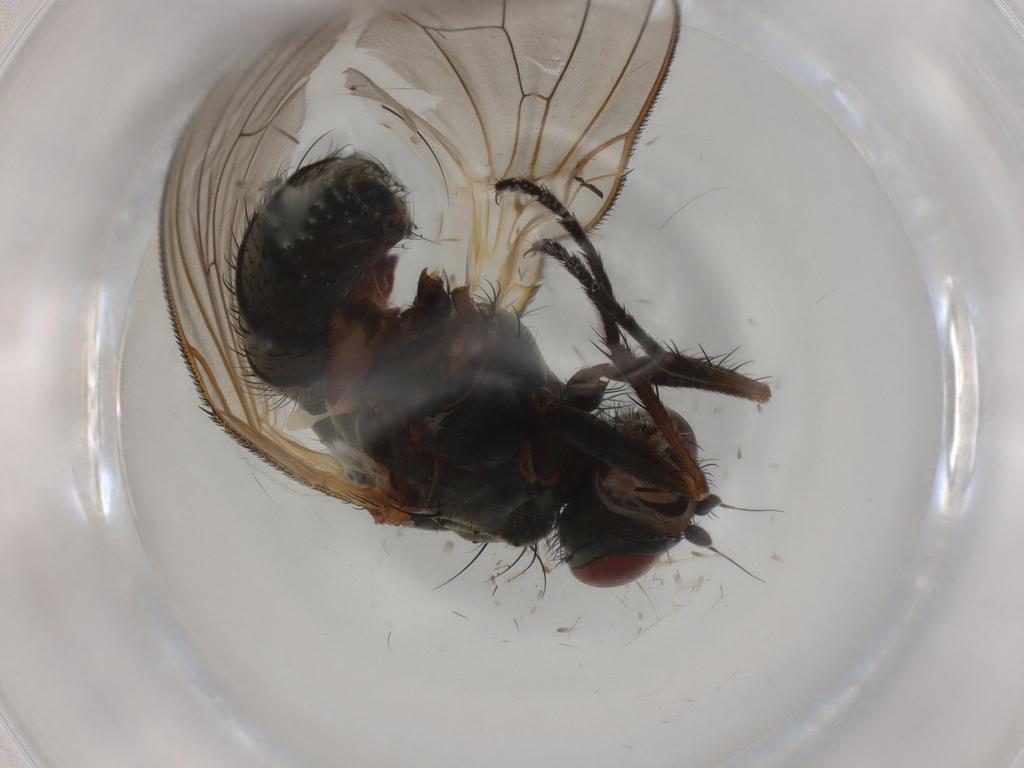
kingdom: Animalia
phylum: Arthropoda
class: Insecta
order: Diptera
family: Anthomyiidae
